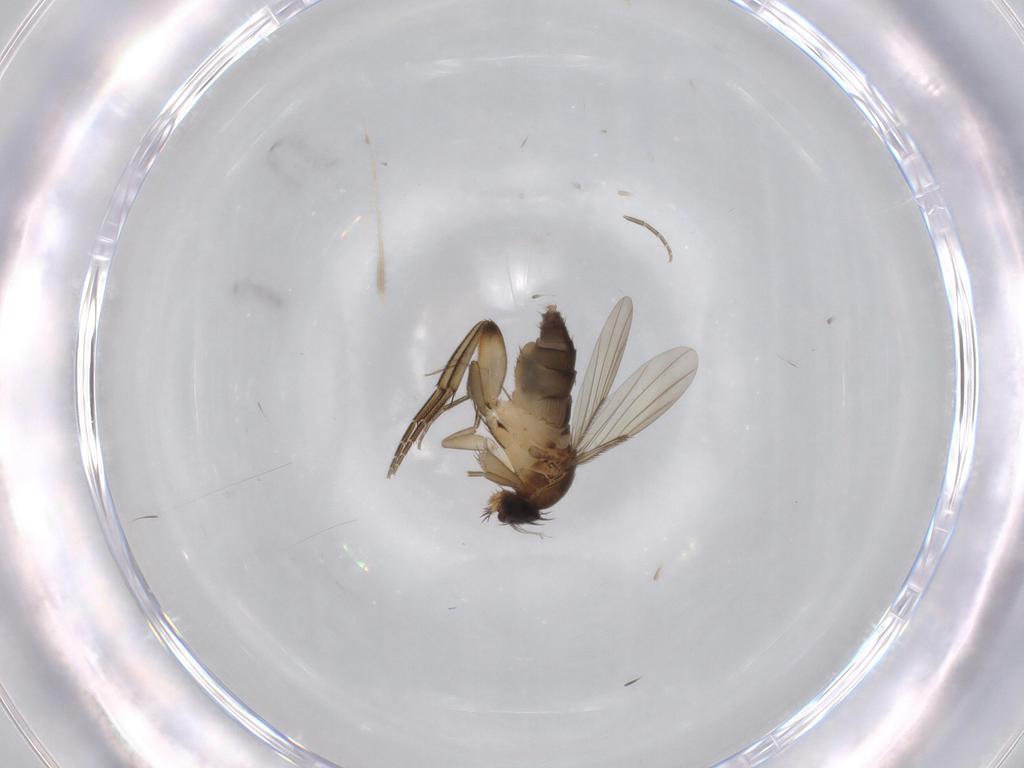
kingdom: Animalia
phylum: Arthropoda
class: Insecta
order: Diptera
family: Phoridae
